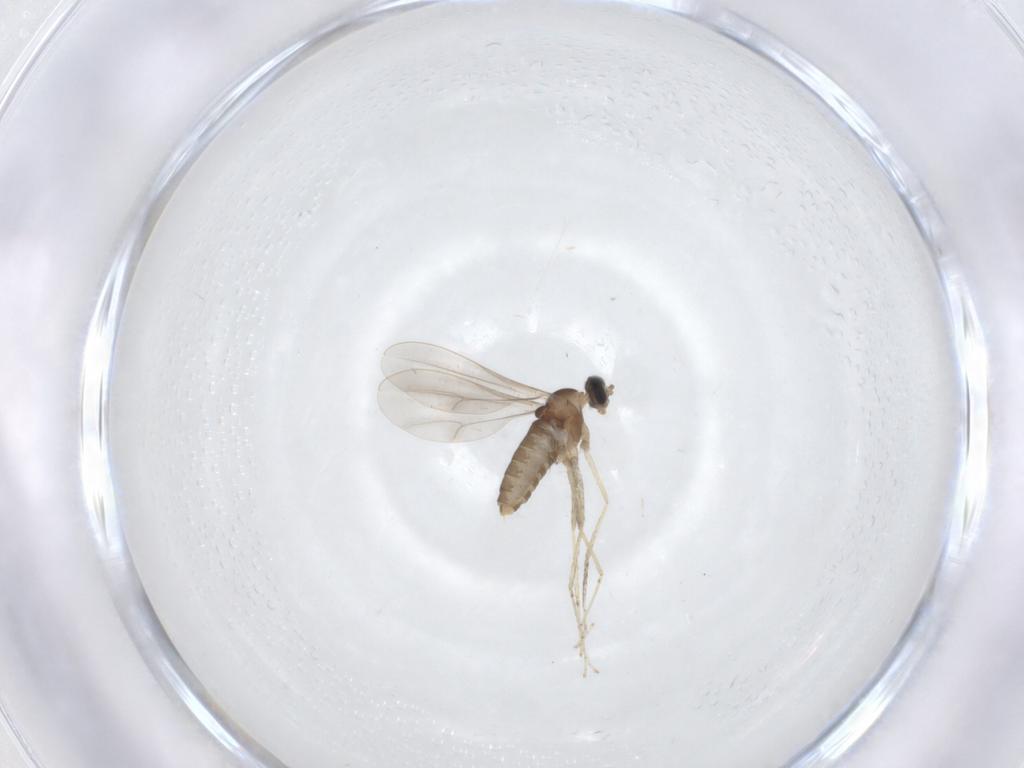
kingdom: Animalia
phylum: Arthropoda
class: Insecta
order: Diptera
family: Cecidomyiidae
